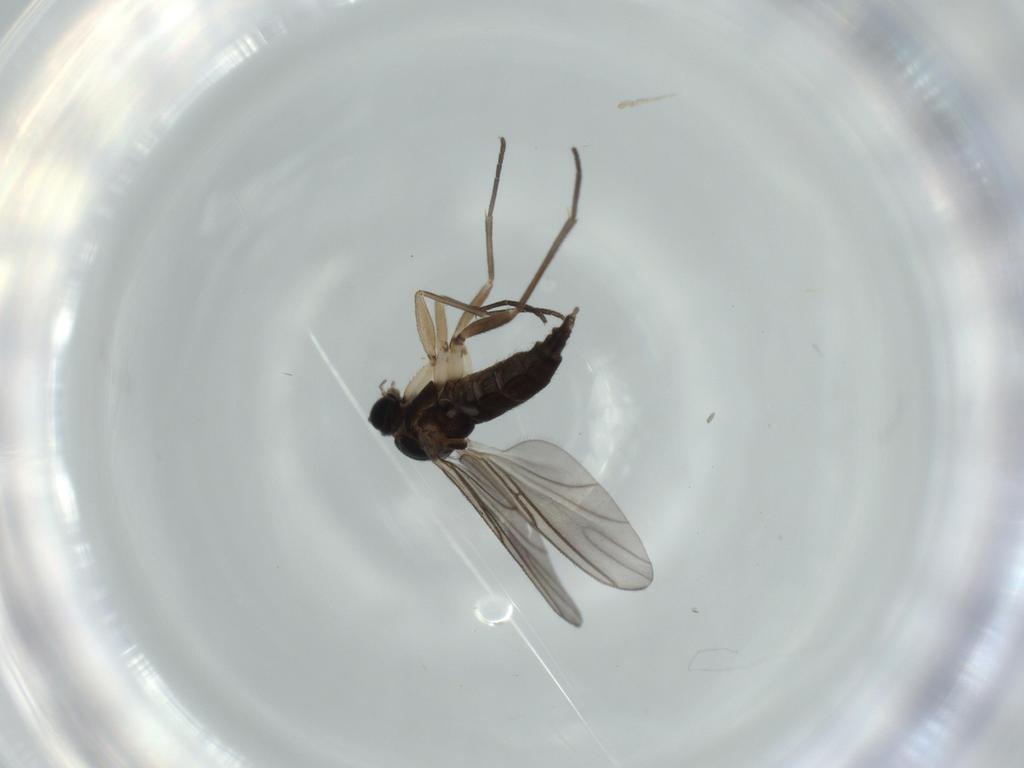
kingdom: Animalia
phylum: Arthropoda
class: Insecta
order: Diptera
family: Sciaridae
